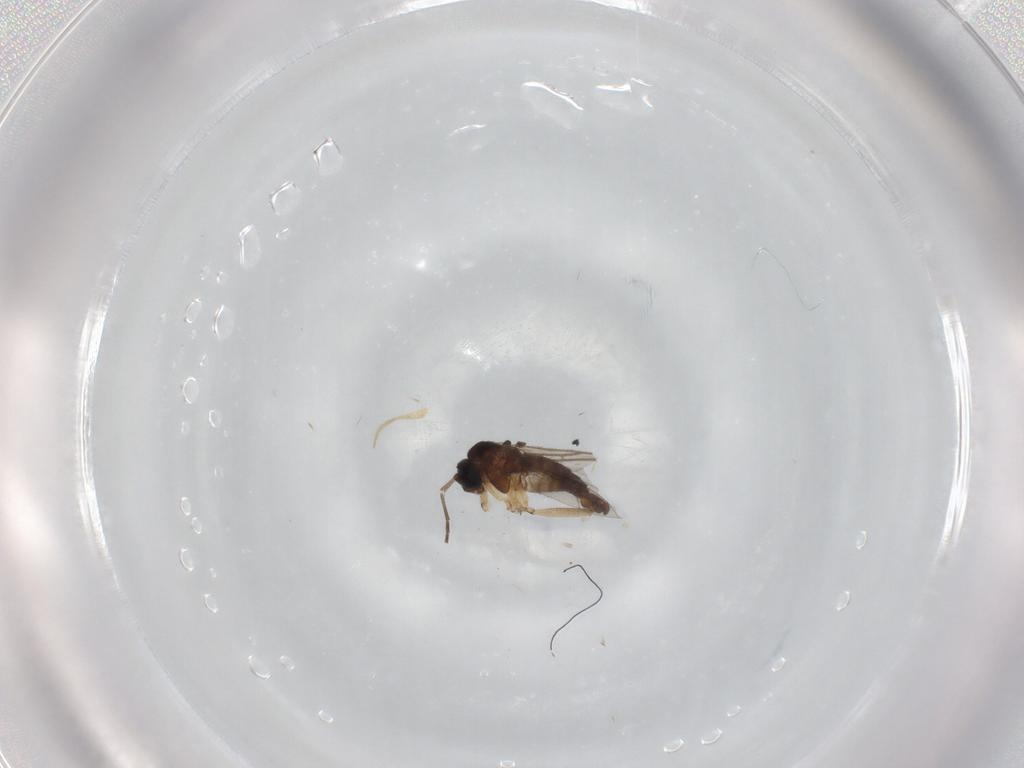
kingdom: Animalia
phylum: Arthropoda
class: Insecta
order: Diptera
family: Sciaridae
